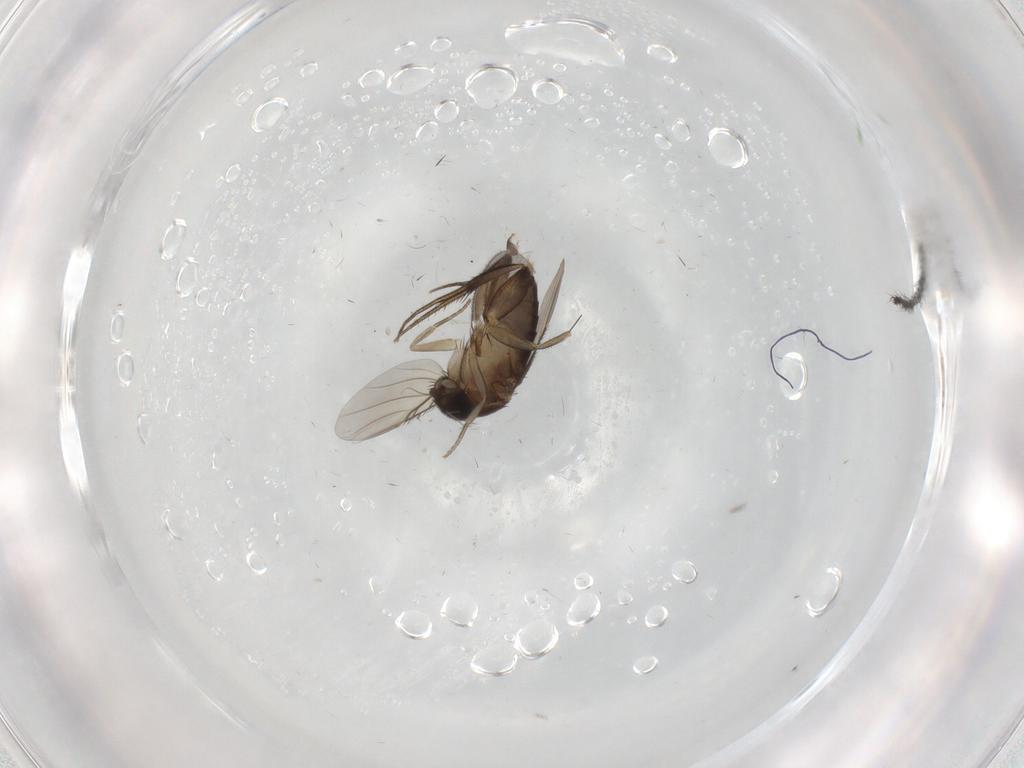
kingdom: Animalia
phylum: Arthropoda
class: Insecta
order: Diptera
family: Phoridae
